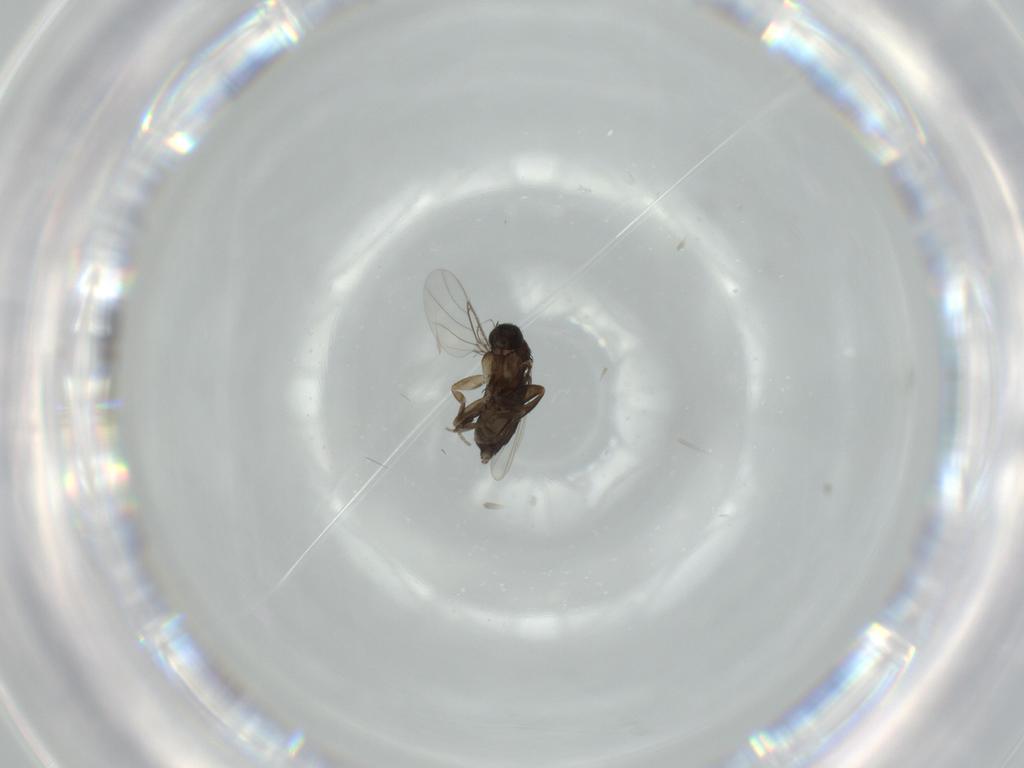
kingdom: Animalia
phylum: Arthropoda
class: Insecta
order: Diptera
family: Phoridae
